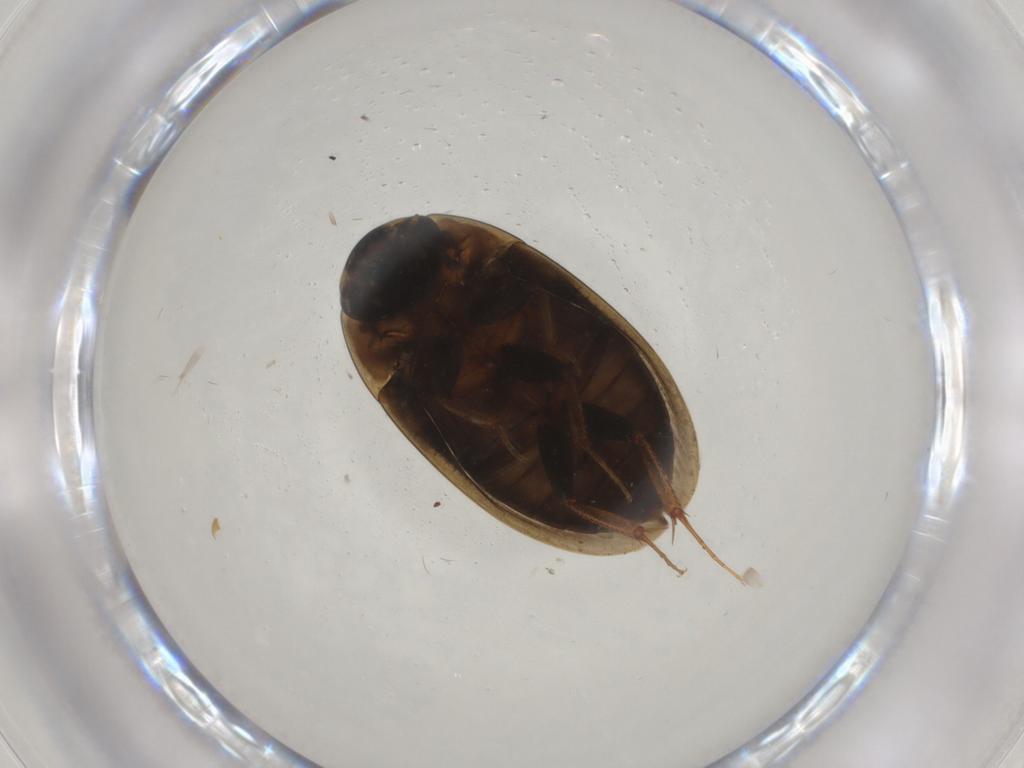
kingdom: Animalia
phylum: Arthropoda
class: Insecta
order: Coleoptera
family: Hydrophilidae
